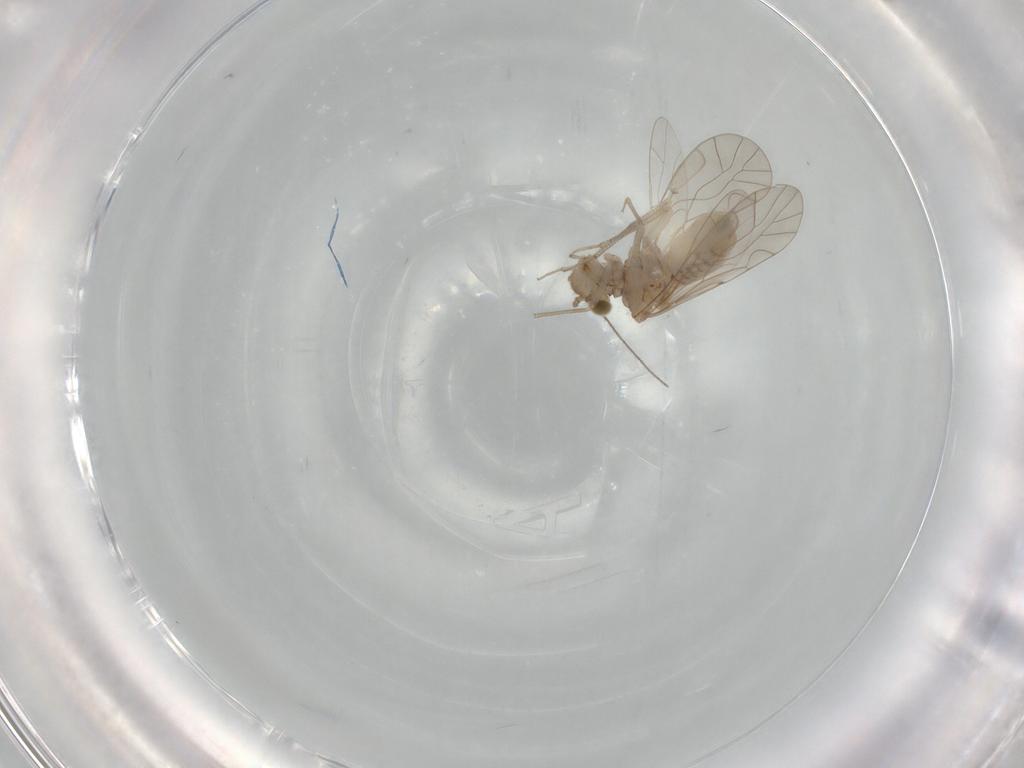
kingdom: Animalia
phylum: Arthropoda
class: Insecta
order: Psocodea
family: Lachesillidae
